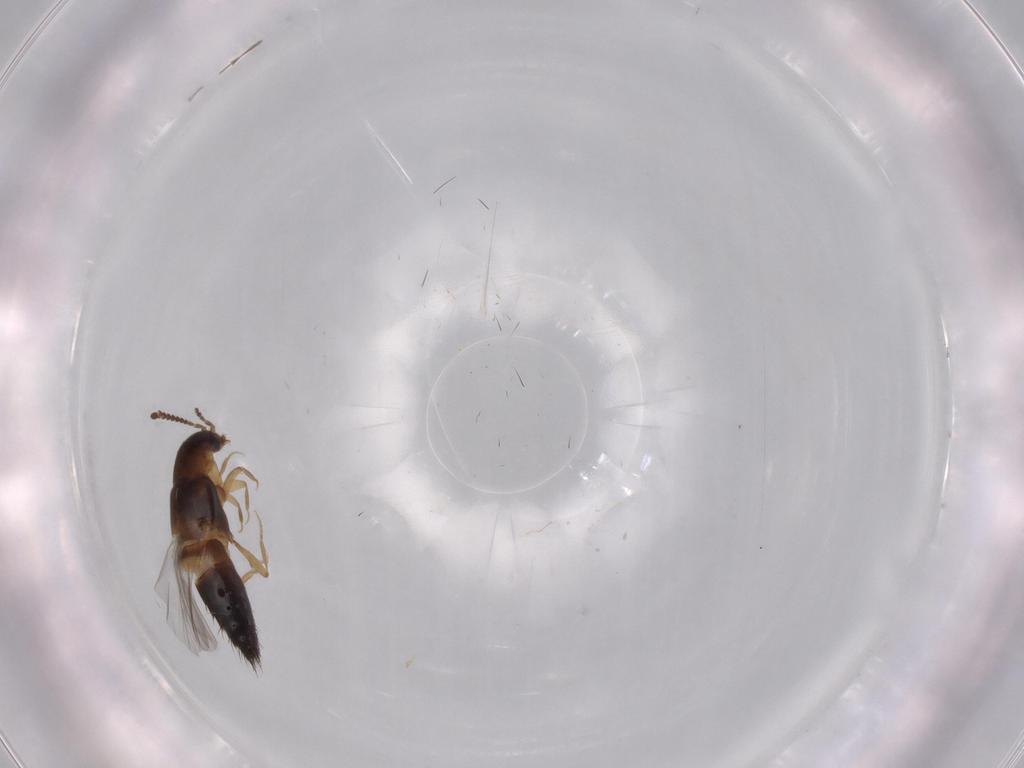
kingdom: Animalia
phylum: Arthropoda
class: Insecta
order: Coleoptera
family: Staphylinidae
